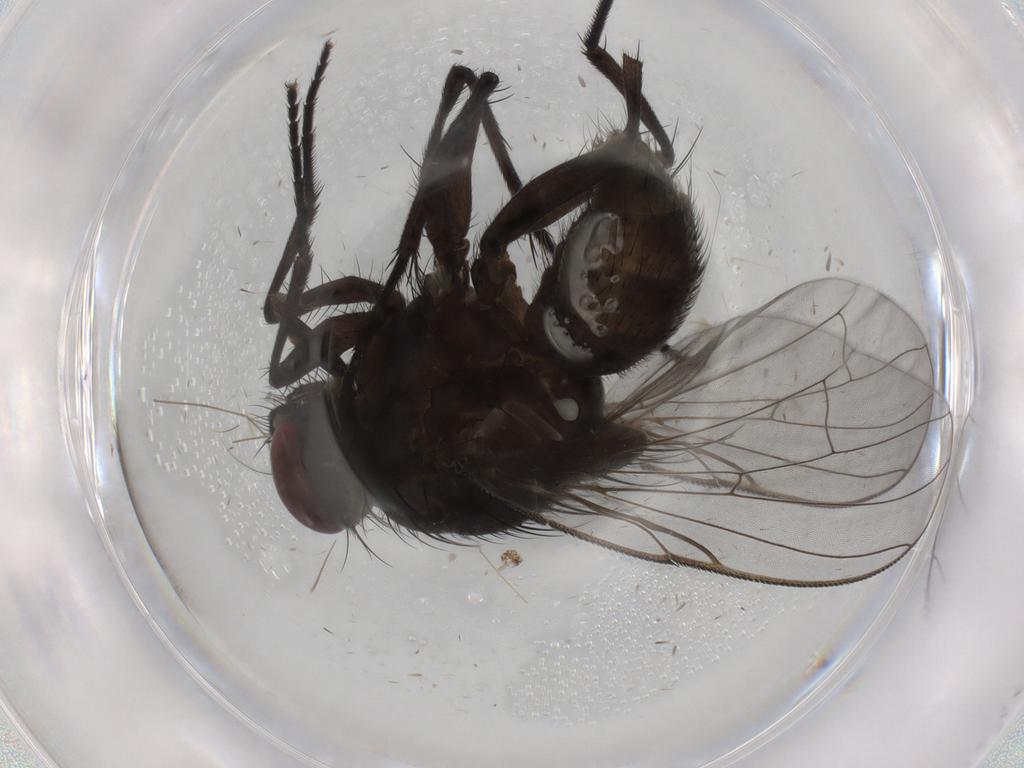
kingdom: Animalia
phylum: Arthropoda
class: Insecta
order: Diptera
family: Muscidae
